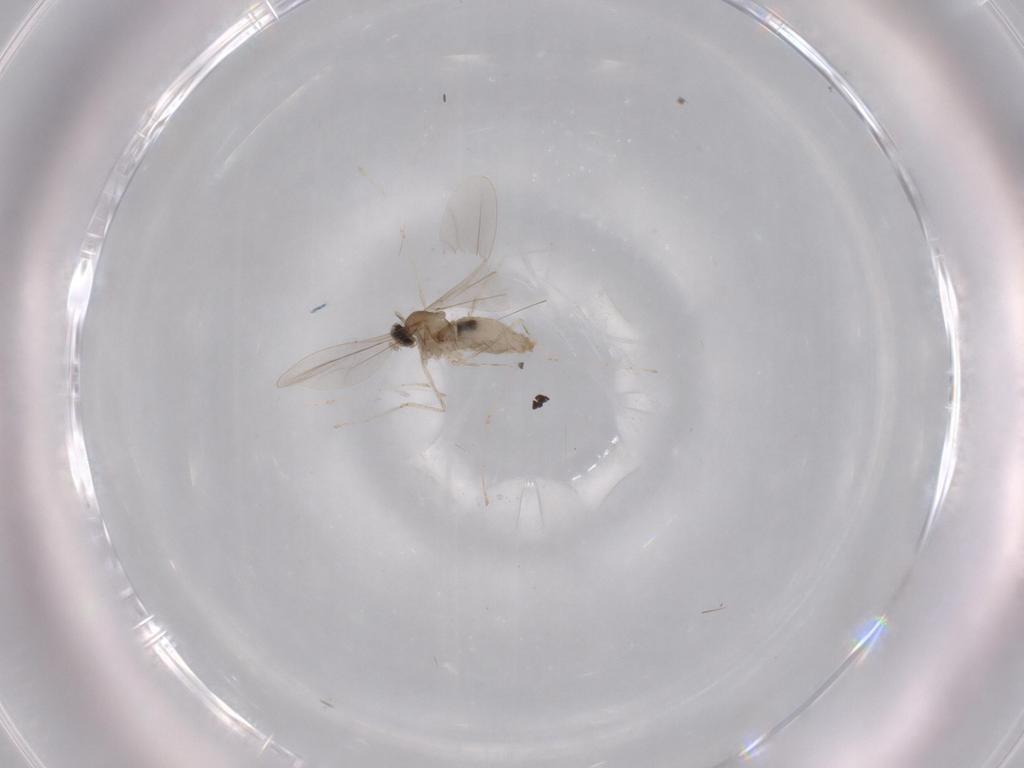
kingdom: Animalia
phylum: Arthropoda
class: Insecta
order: Diptera
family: Cecidomyiidae
